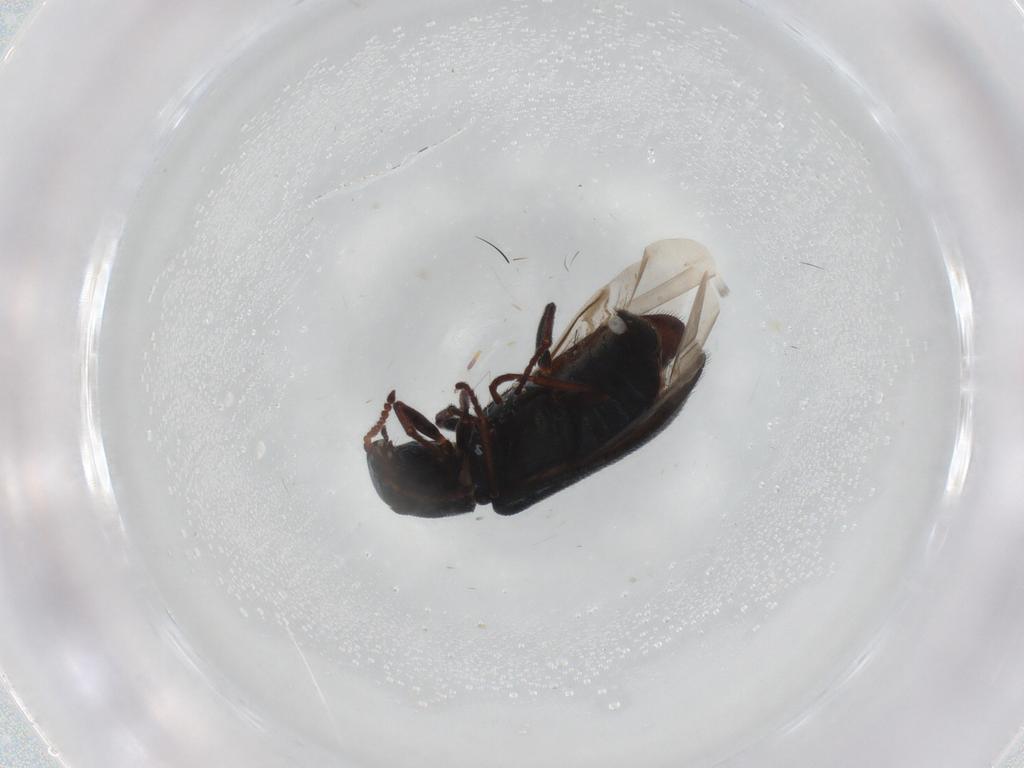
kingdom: Animalia
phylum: Arthropoda
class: Insecta
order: Coleoptera
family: Melyridae
